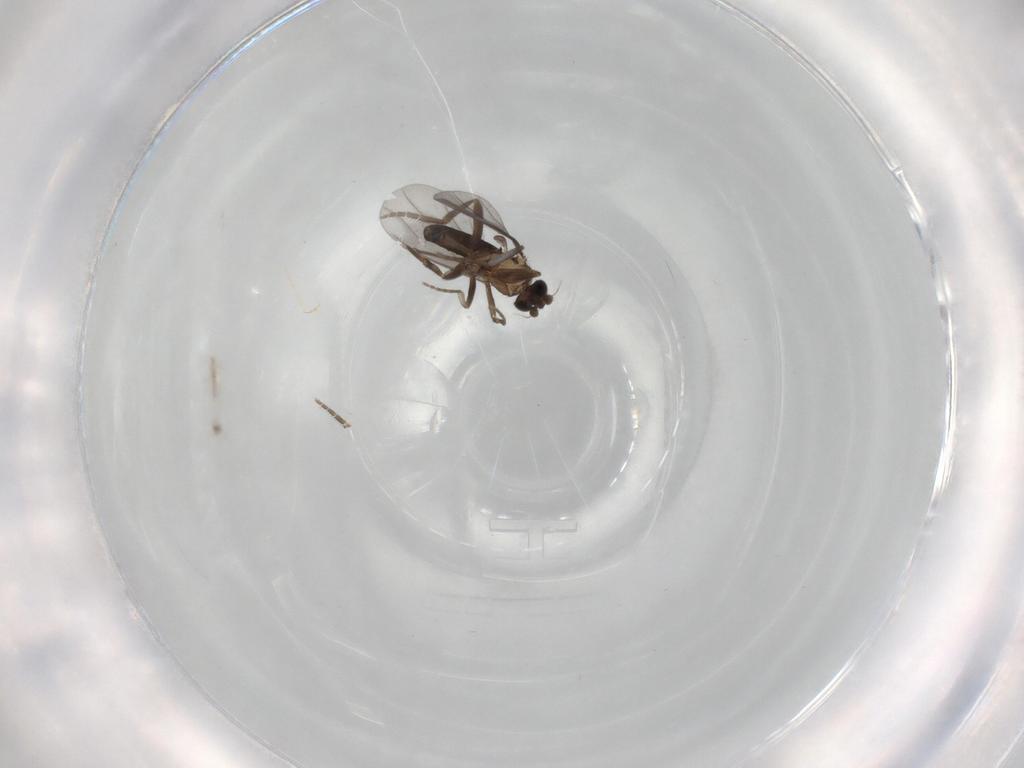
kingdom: Animalia
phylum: Arthropoda
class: Insecta
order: Diptera
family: Cecidomyiidae
